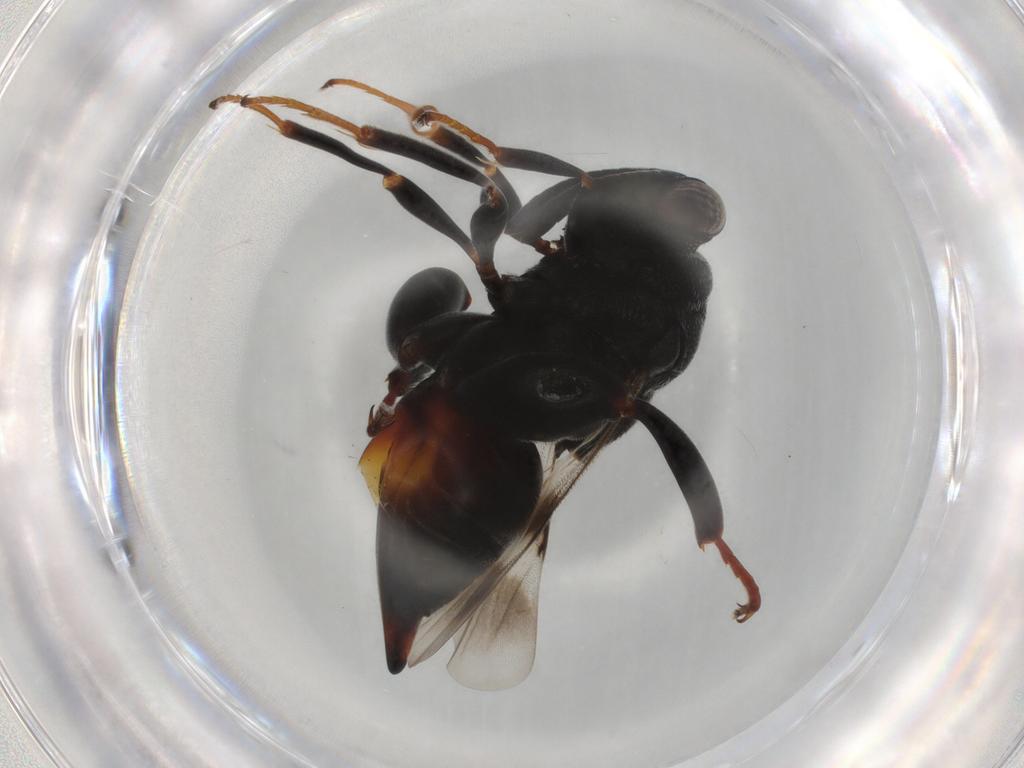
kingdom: Animalia
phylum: Arthropoda
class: Insecta
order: Hymenoptera
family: Chalcididae
